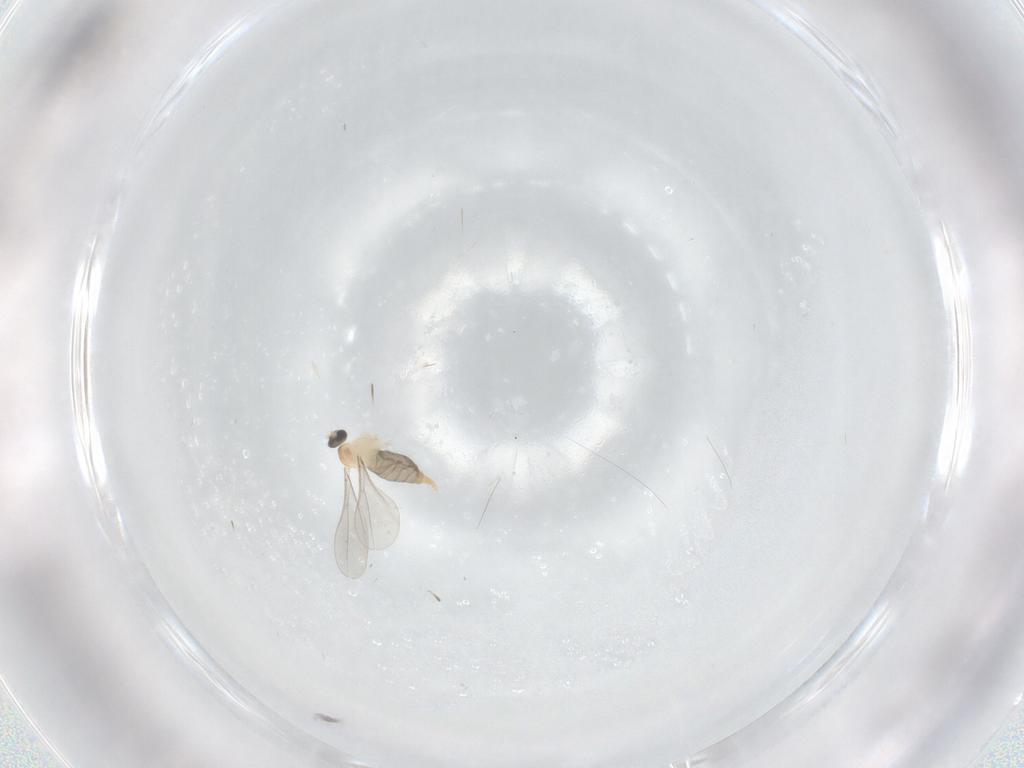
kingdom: Animalia
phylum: Arthropoda
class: Insecta
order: Diptera
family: Cecidomyiidae
